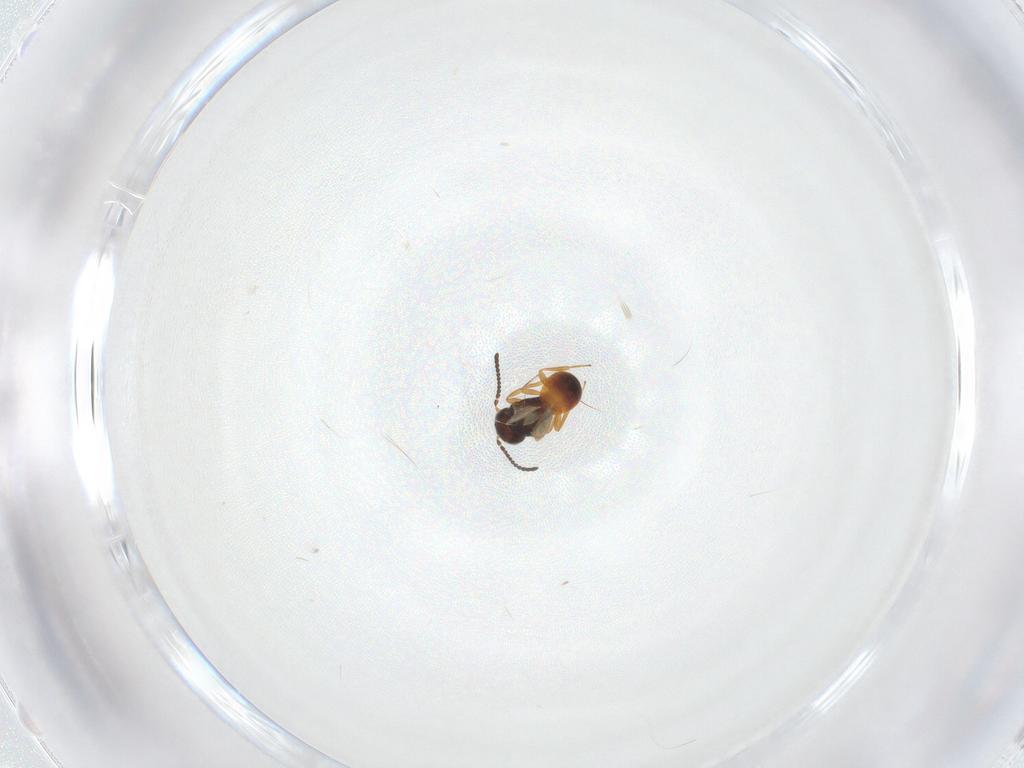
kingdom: Animalia
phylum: Arthropoda
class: Insecta
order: Hymenoptera
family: Scelionidae
